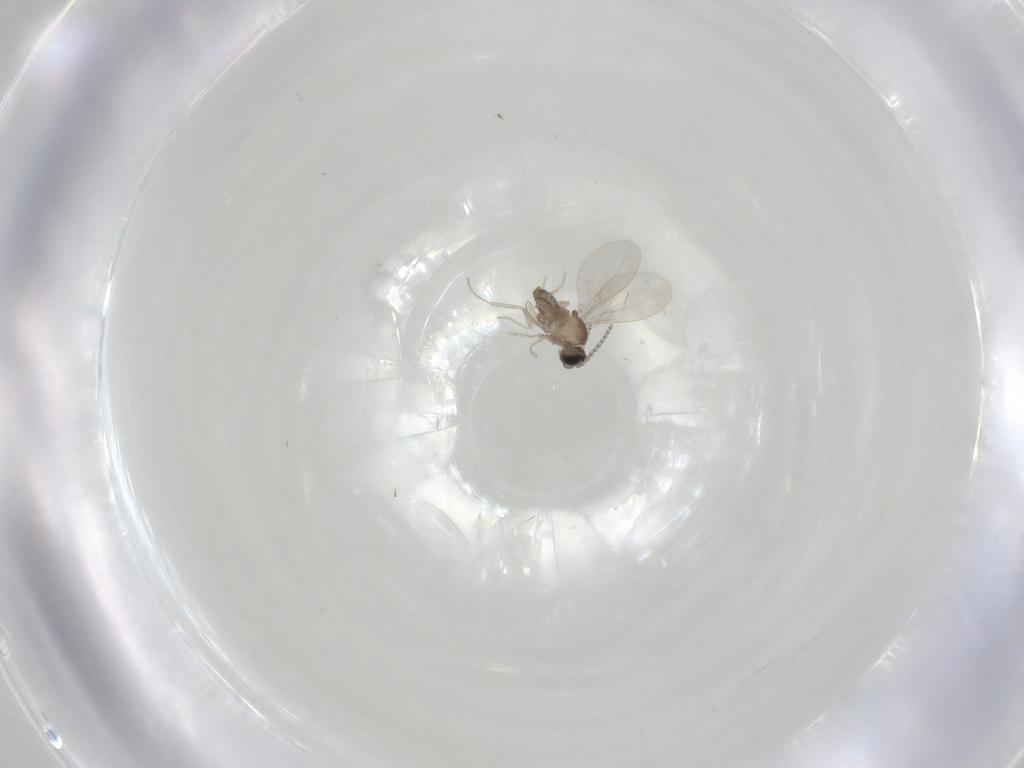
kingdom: Animalia
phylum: Arthropoda
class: Insecta
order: Diptera
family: Cecidomyiidae
